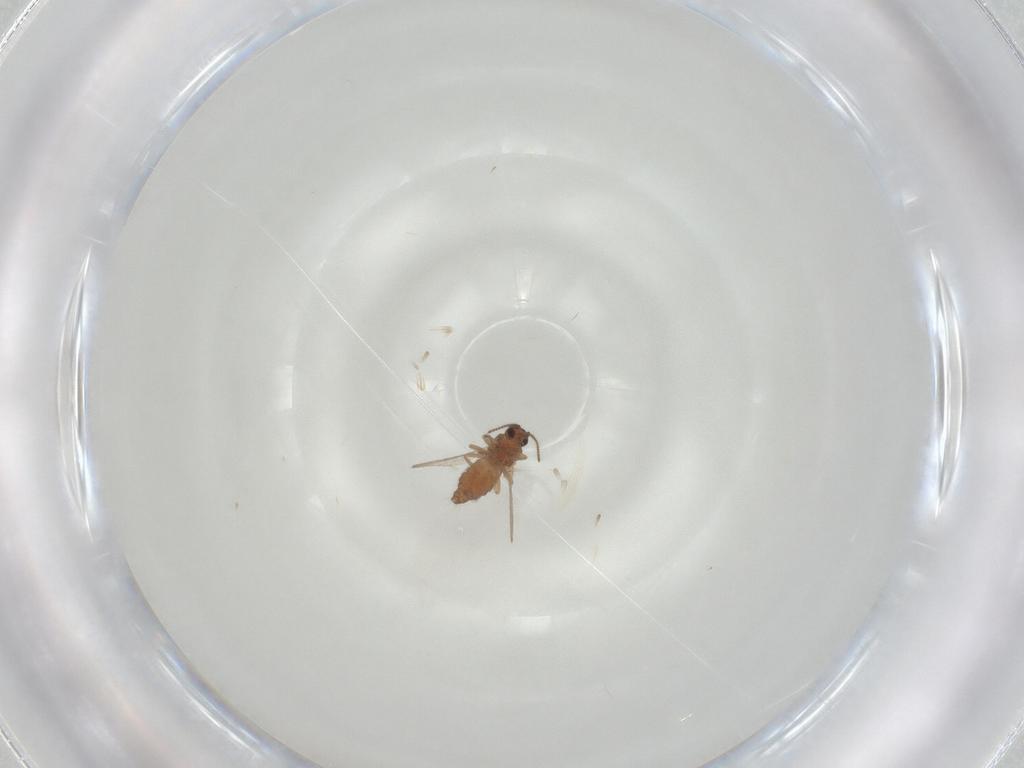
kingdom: Animalia
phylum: Arthropoda
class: Insecta
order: Diptera
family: Ceratopogonidae
